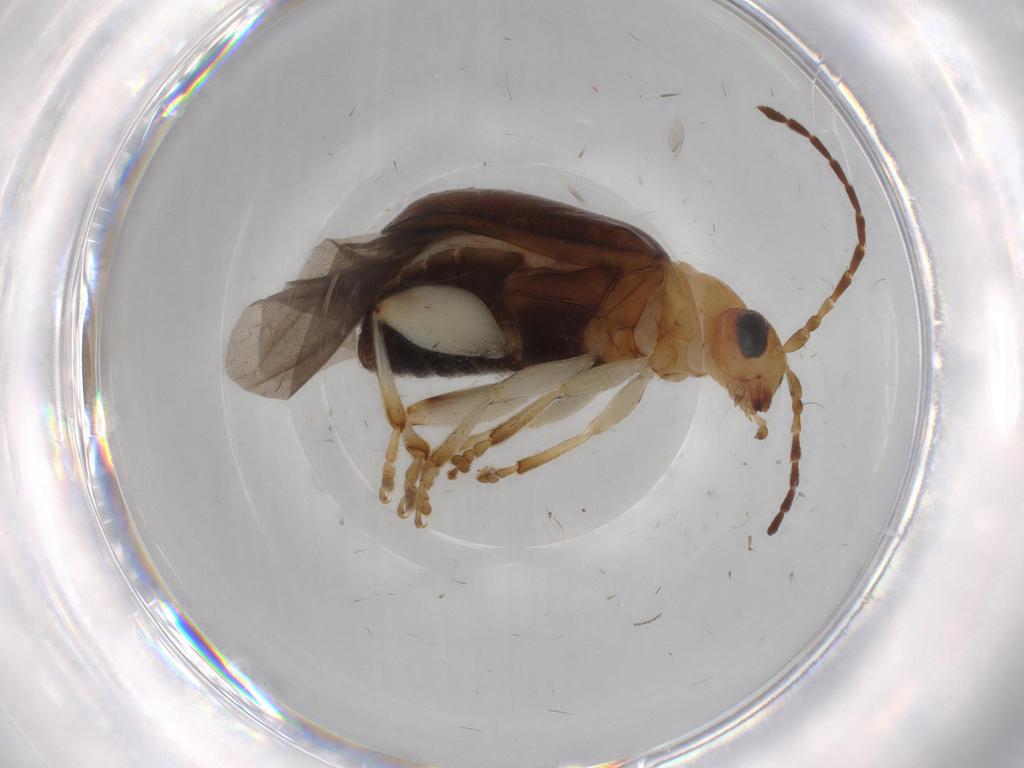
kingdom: Animalia
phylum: Arthropoda
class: Insecta
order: Coleoptera
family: Chrysomelidae
